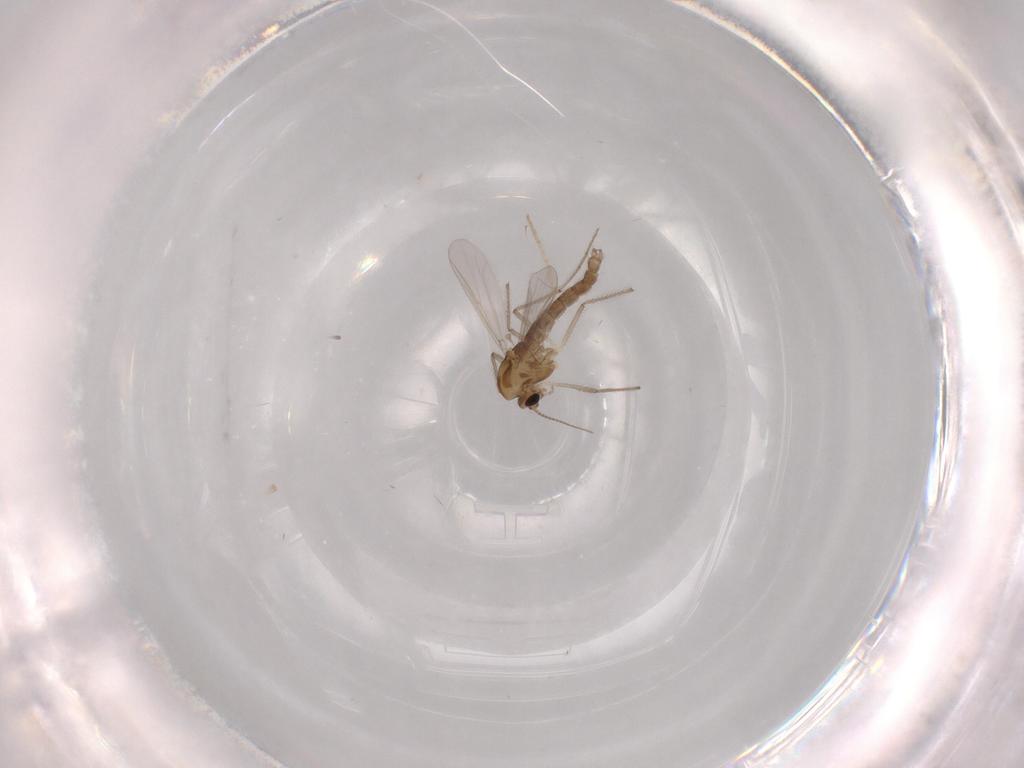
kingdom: Animalia
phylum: Arthropoda
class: Insecta
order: Diptera
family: Chironomidae
